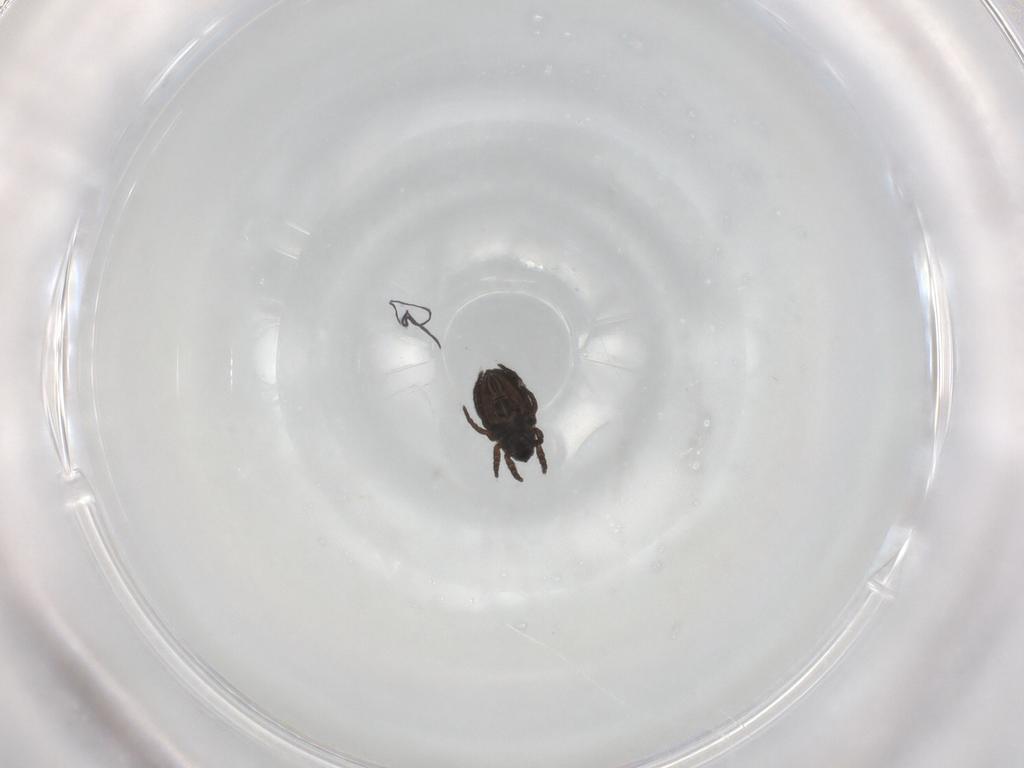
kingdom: Animalia
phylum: Arthropoda
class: Arachnida
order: Sarcoptiformes
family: Crotoniidae
